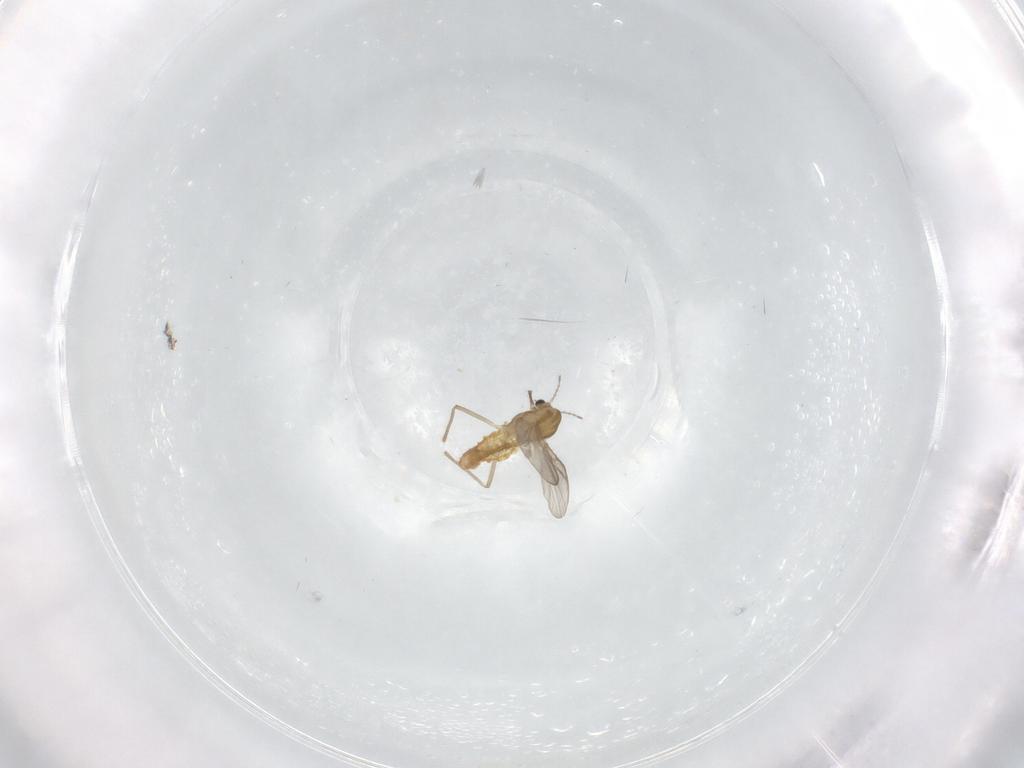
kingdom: Animalia
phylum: Arthropoda
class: Insecta
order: Diptera
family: Chironomidae
